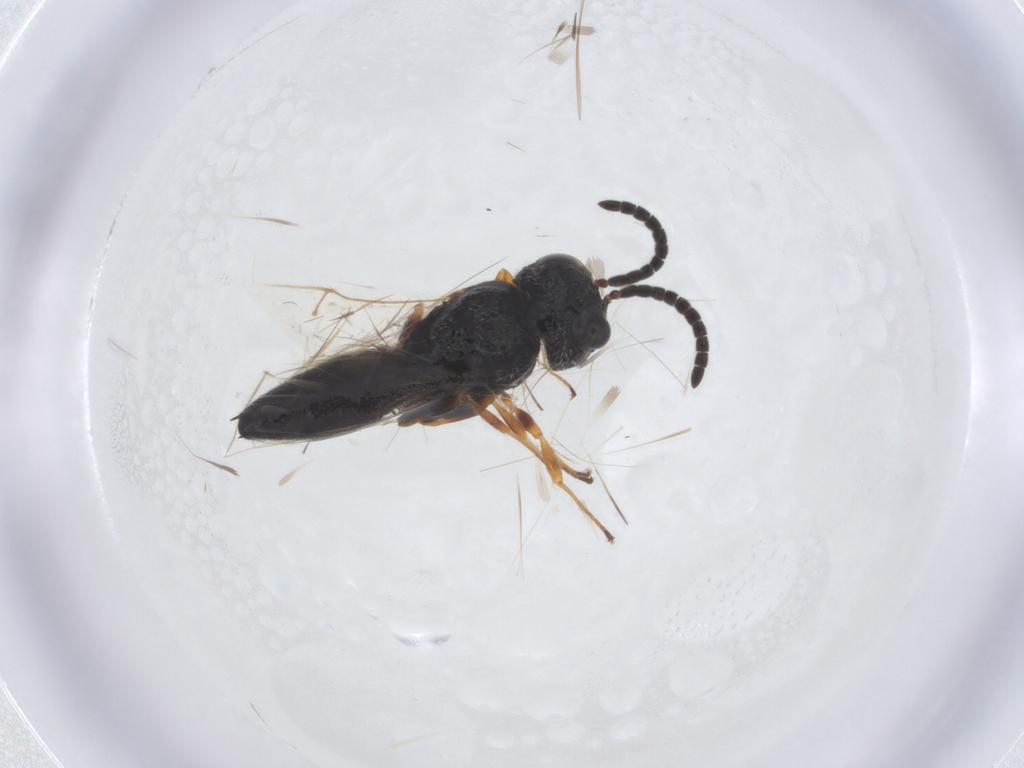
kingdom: Animalia
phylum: Arthropoda
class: Insecta
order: Hymenoptera
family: Apidae
